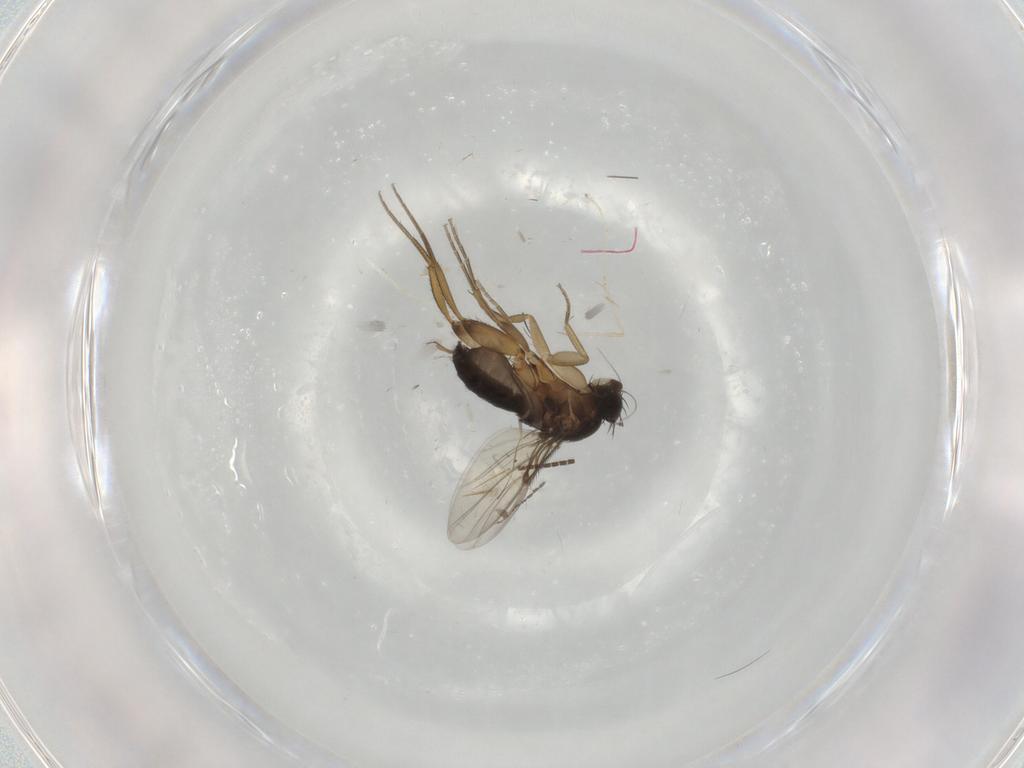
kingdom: Animalia
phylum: Arthropoda
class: Insecta
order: Diptera
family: Cecidomyiidae
